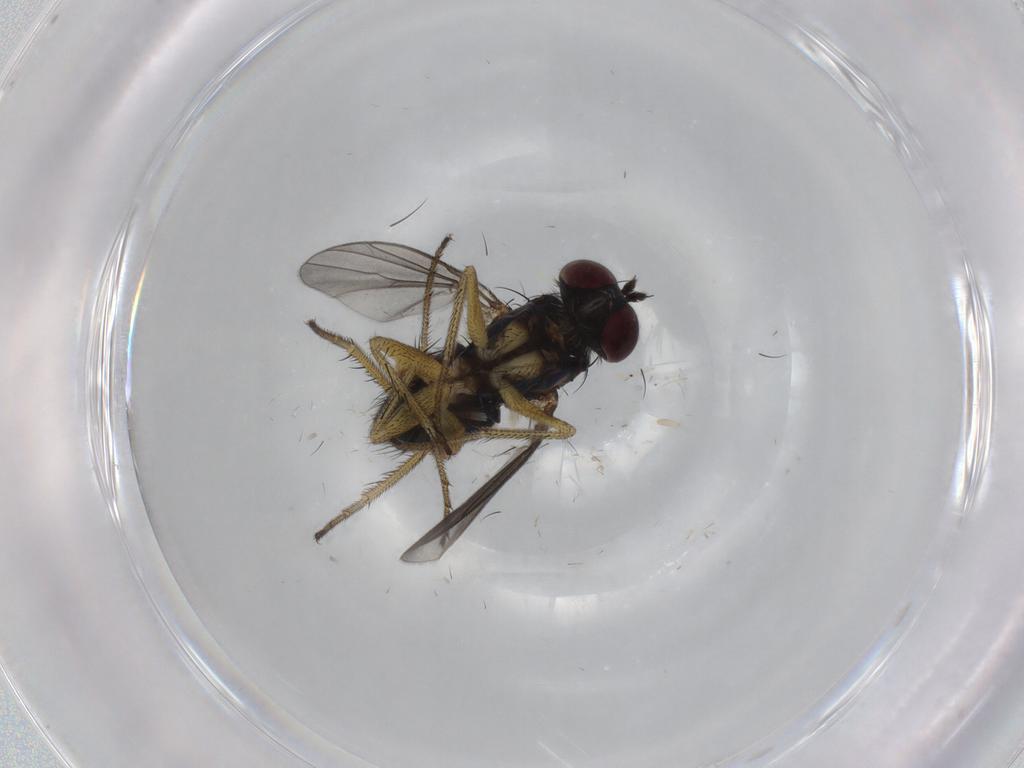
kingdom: Animalia
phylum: Arthropoda
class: Insecta
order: Diptera
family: Dolichopodidae
